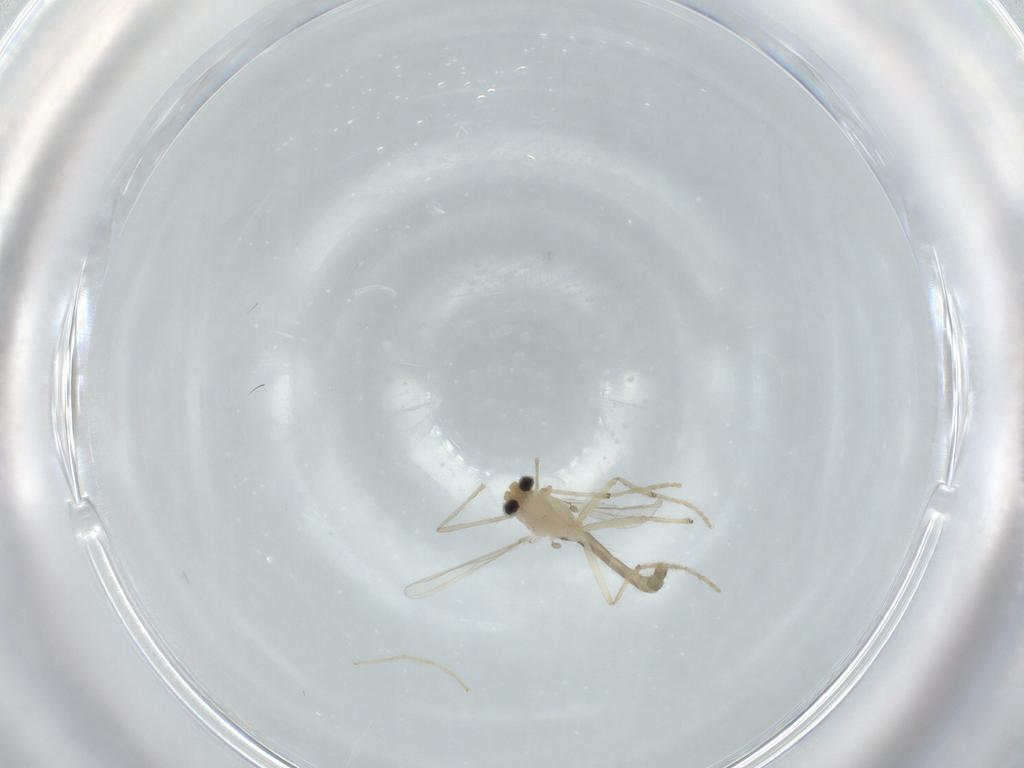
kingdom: Animalia
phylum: Arthropoda
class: Insecta
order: Diptera
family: Chironomidae
